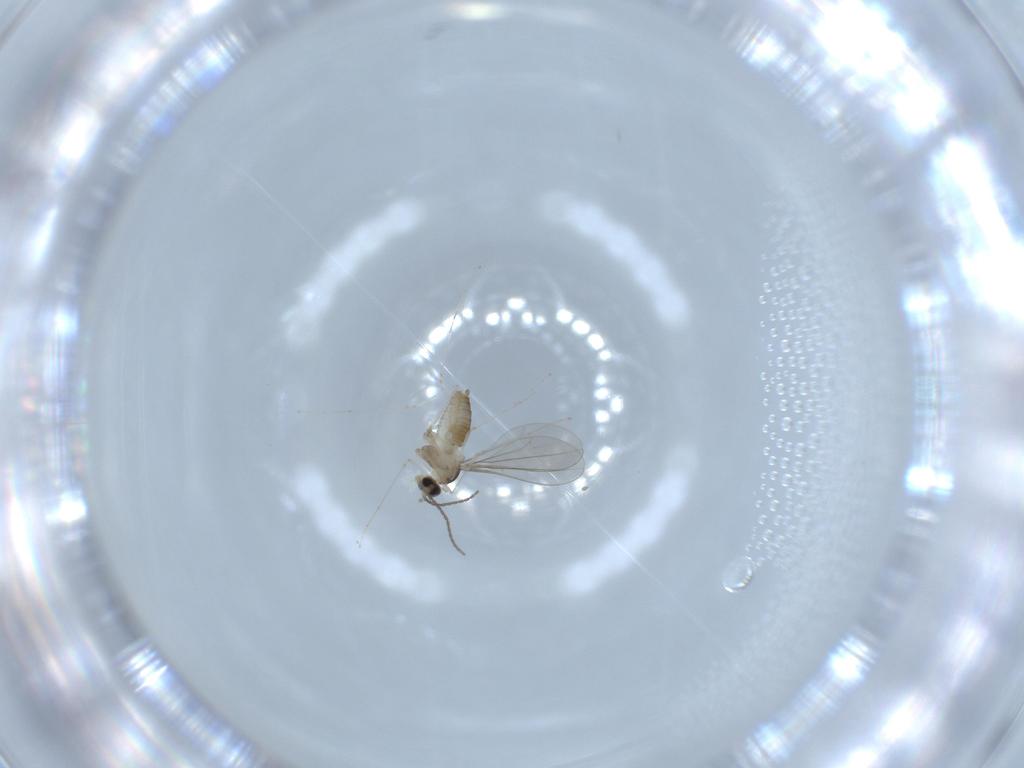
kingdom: Animalia
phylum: Arthropoda
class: Insecta
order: Diptera
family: Cecidomyiidae
